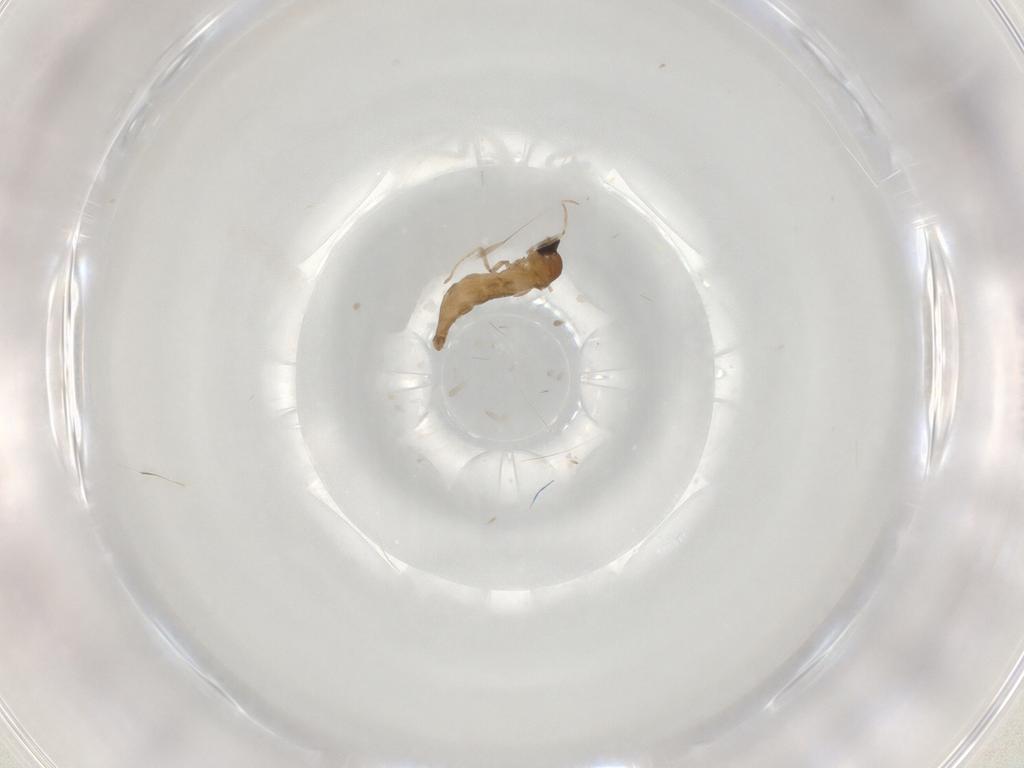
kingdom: Animalia
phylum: Arthropoda
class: Insecta
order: Diptera
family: Cecidomyiidae
